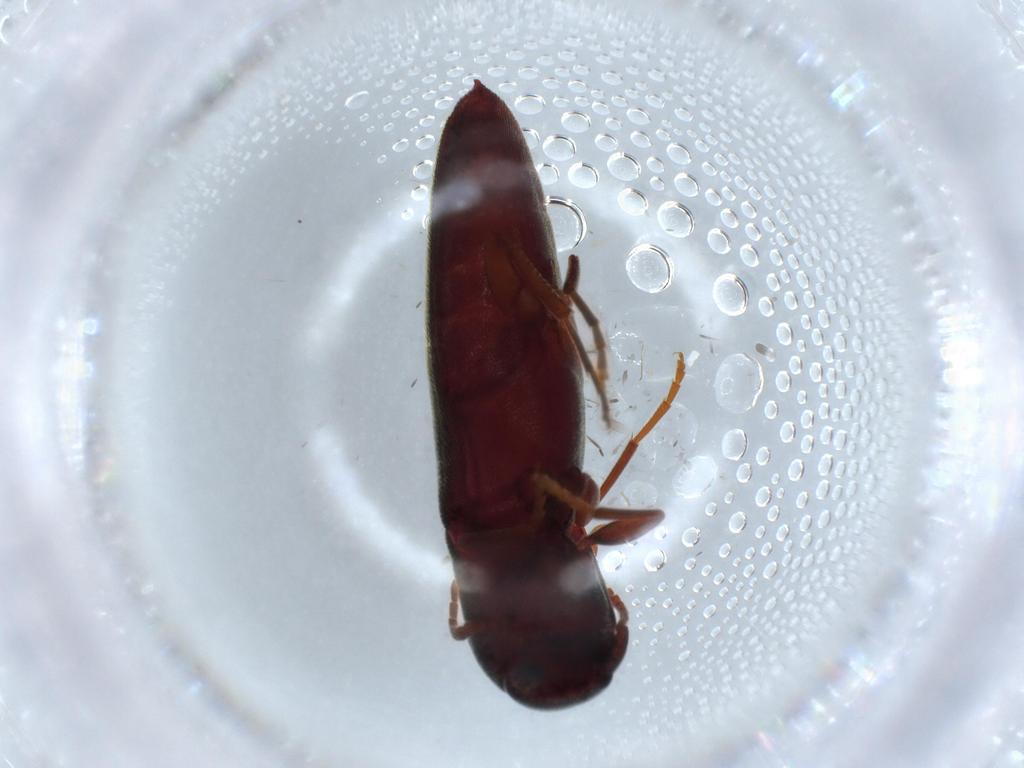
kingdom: Animalia
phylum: Arthropoda
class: Insecta
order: Coleoptera
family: Eucnemidae
